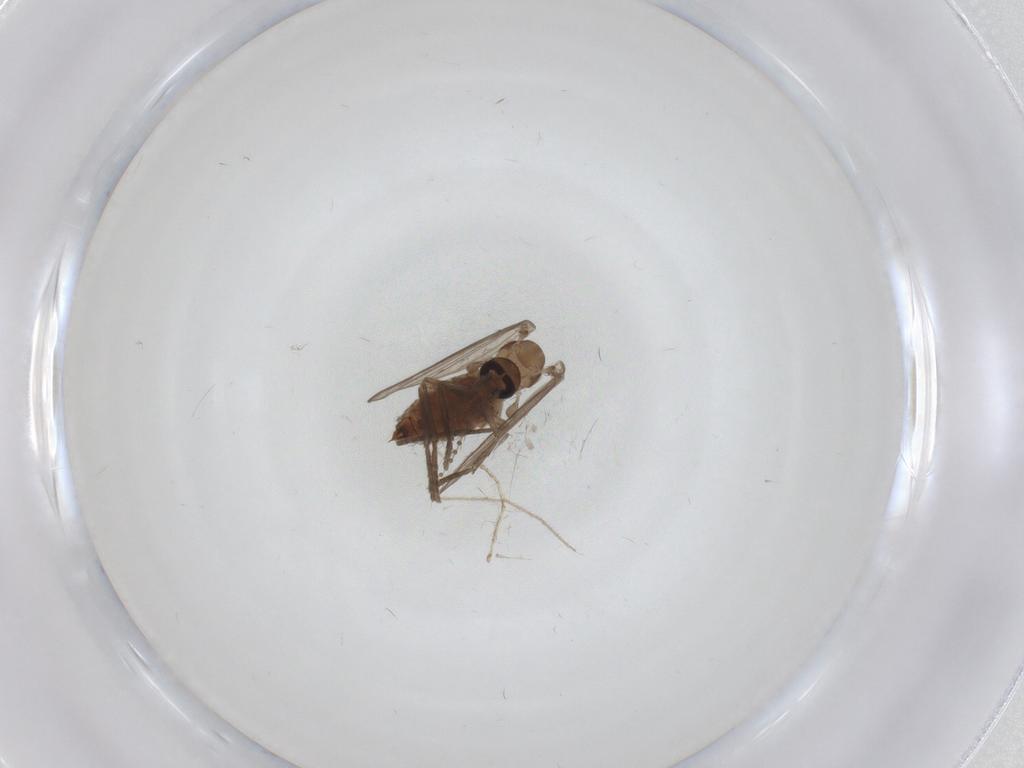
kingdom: Animalia
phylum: Arthropoda
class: Insecta
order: Diptera
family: Psychodidae
